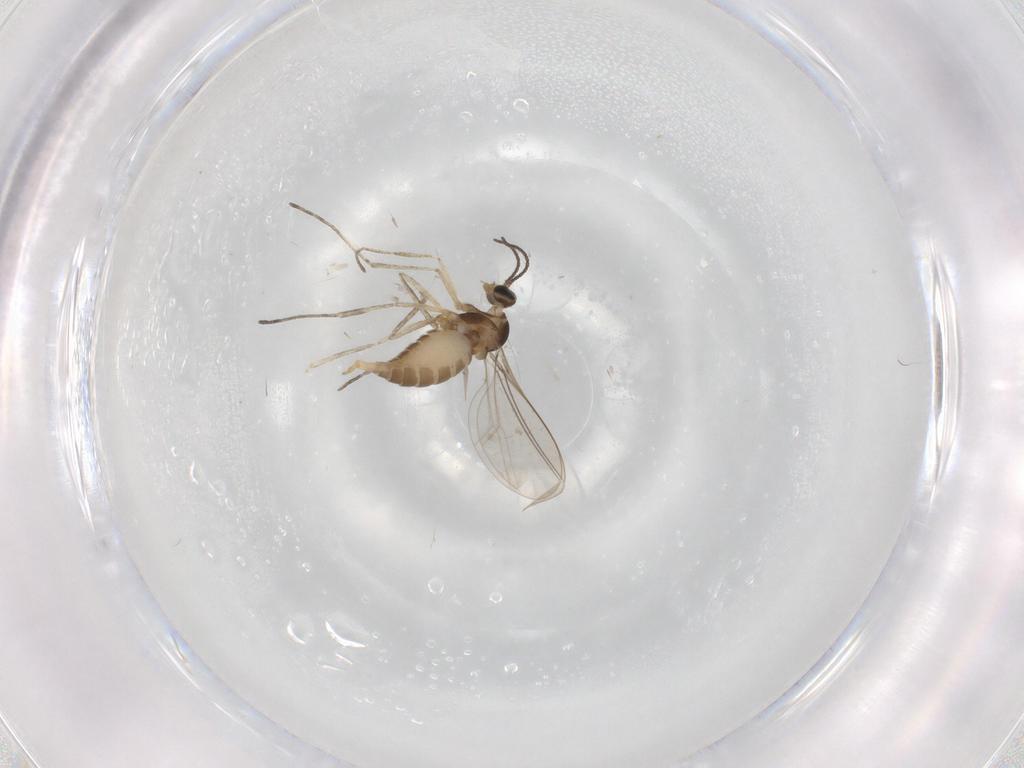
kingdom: Animalia
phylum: Arthropoda
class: Insecta
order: Diptera
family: Cecidomyiidae
